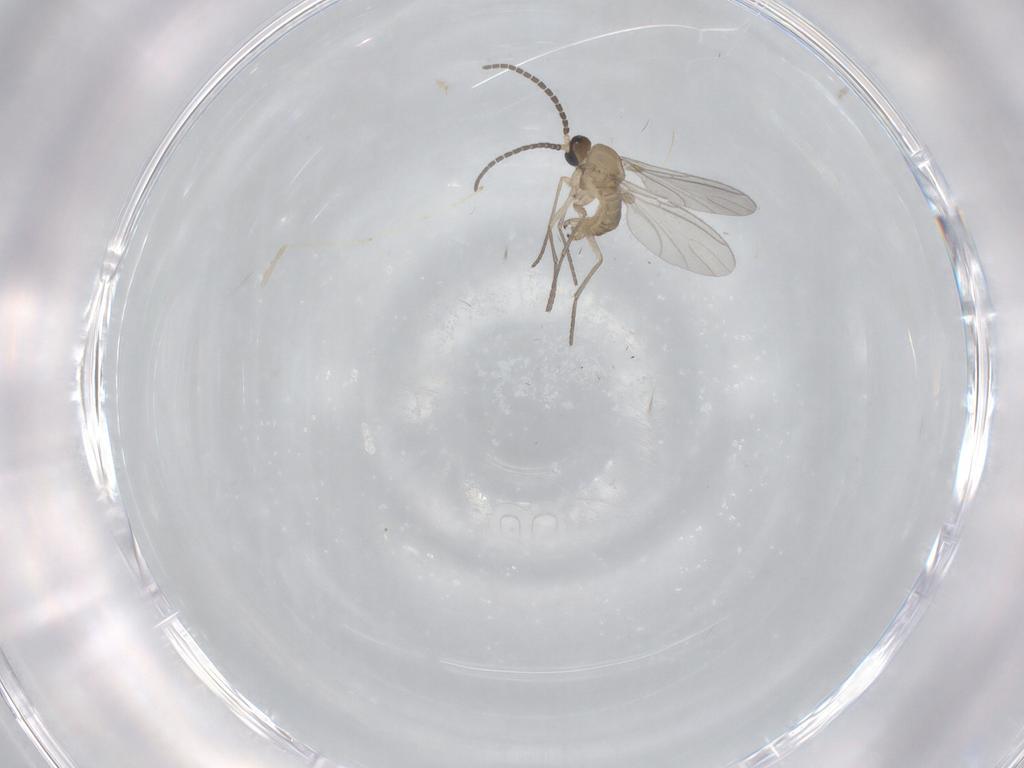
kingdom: Animalia
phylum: Arthropoda
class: Insecta
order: Diptera
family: Sciaridae
